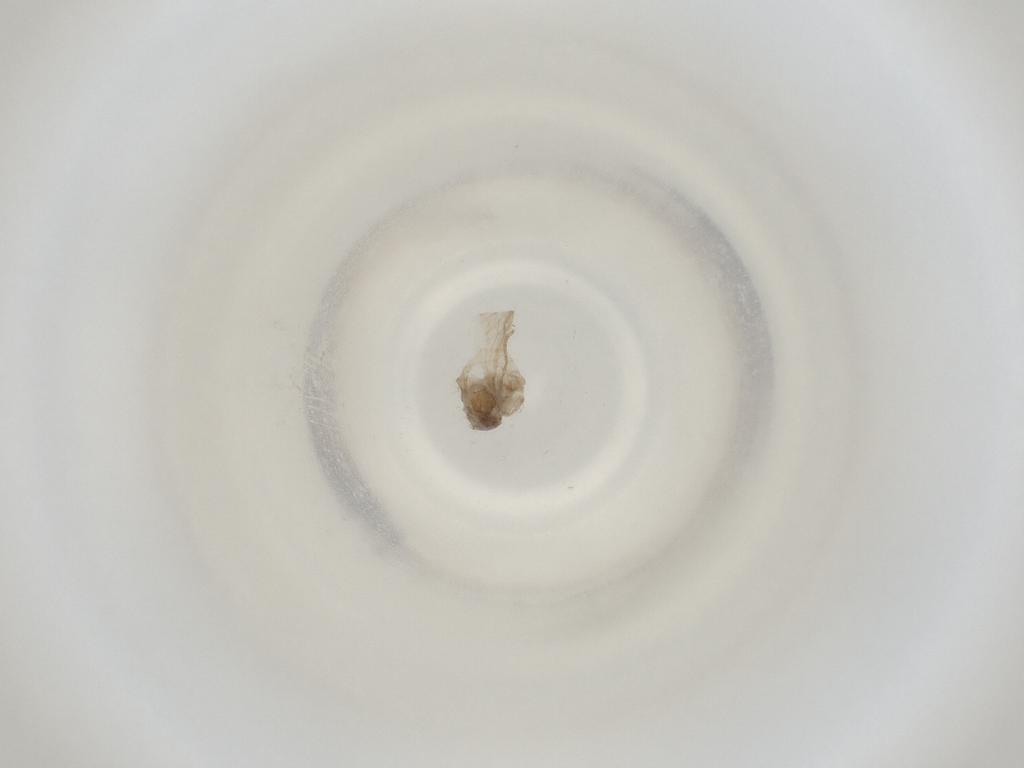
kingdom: Animalia
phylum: Arthropoda
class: Insecta
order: Diptera
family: Cecidomyiidae
